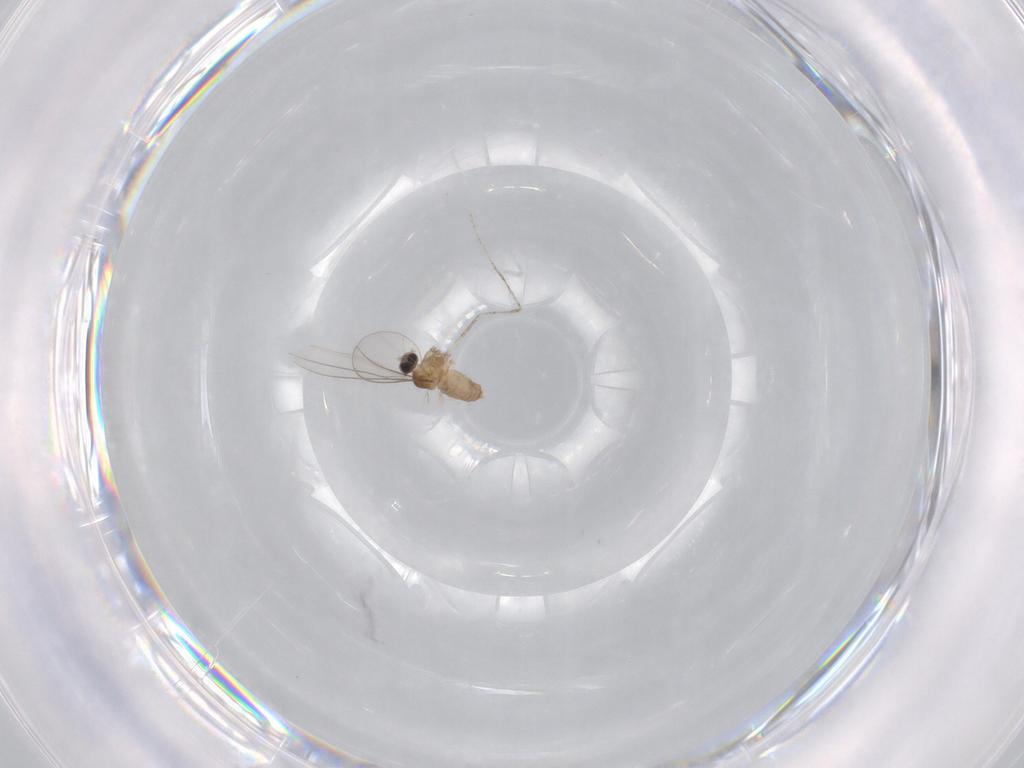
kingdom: Animalia
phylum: Arthropoda
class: Insecta
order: Diptera
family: Cecidomyiidae
